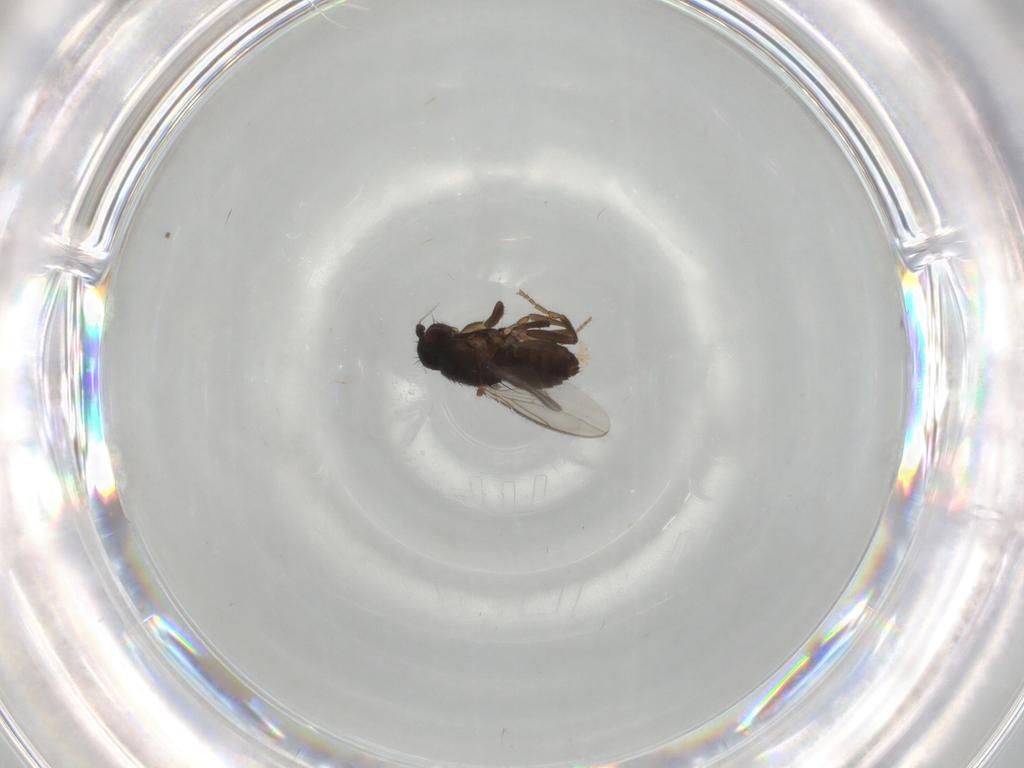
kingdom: Animalia
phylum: Arthropoda
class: Insecta
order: Diptera
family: Sphaeroceridae
